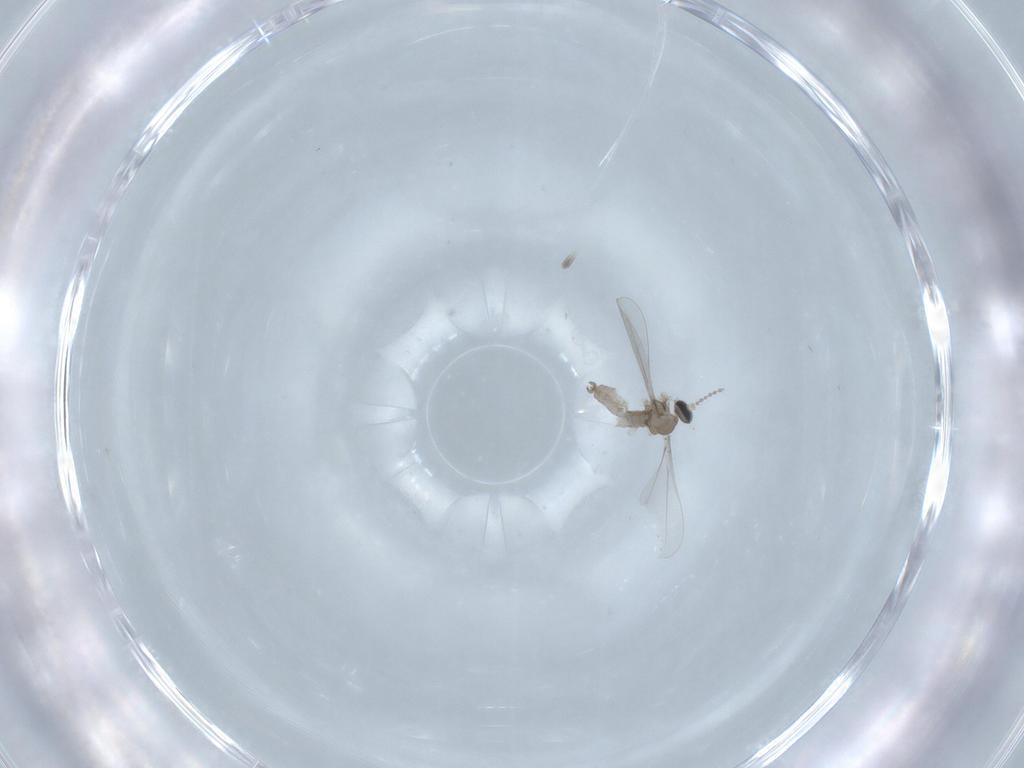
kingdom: Animalia
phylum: Arthropoda
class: Insecta
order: Diptera
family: Cecidomyiidae
